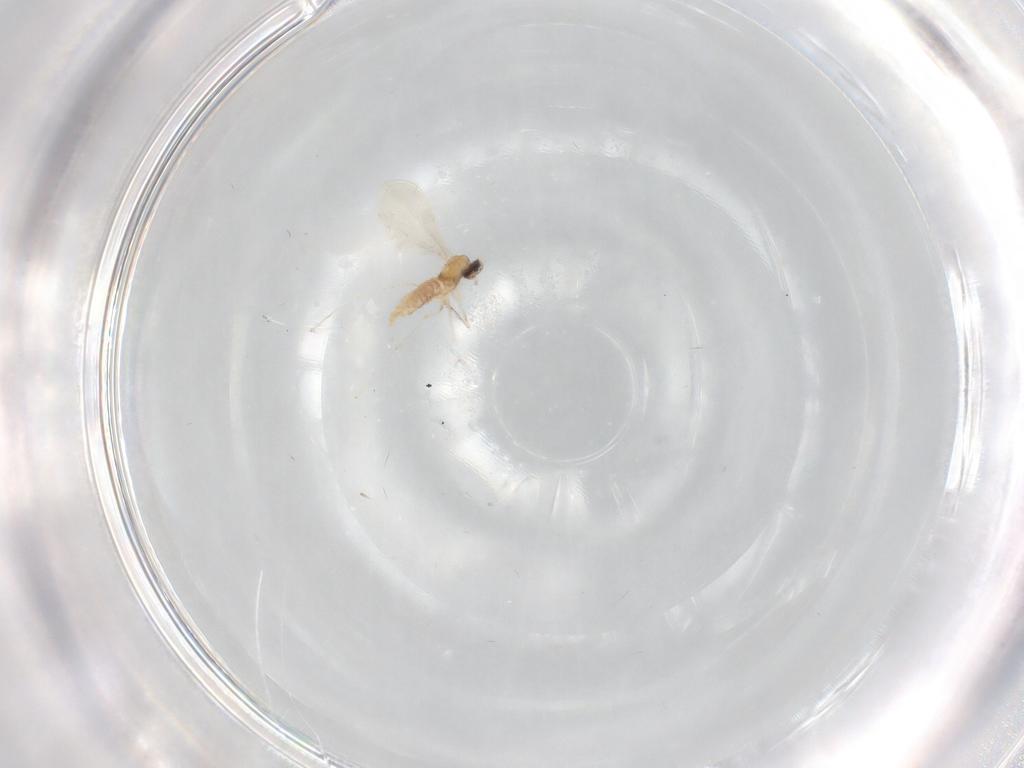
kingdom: Animalia
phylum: Arthropoda
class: Insecta
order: Diptera
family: Cecidomyiidae
